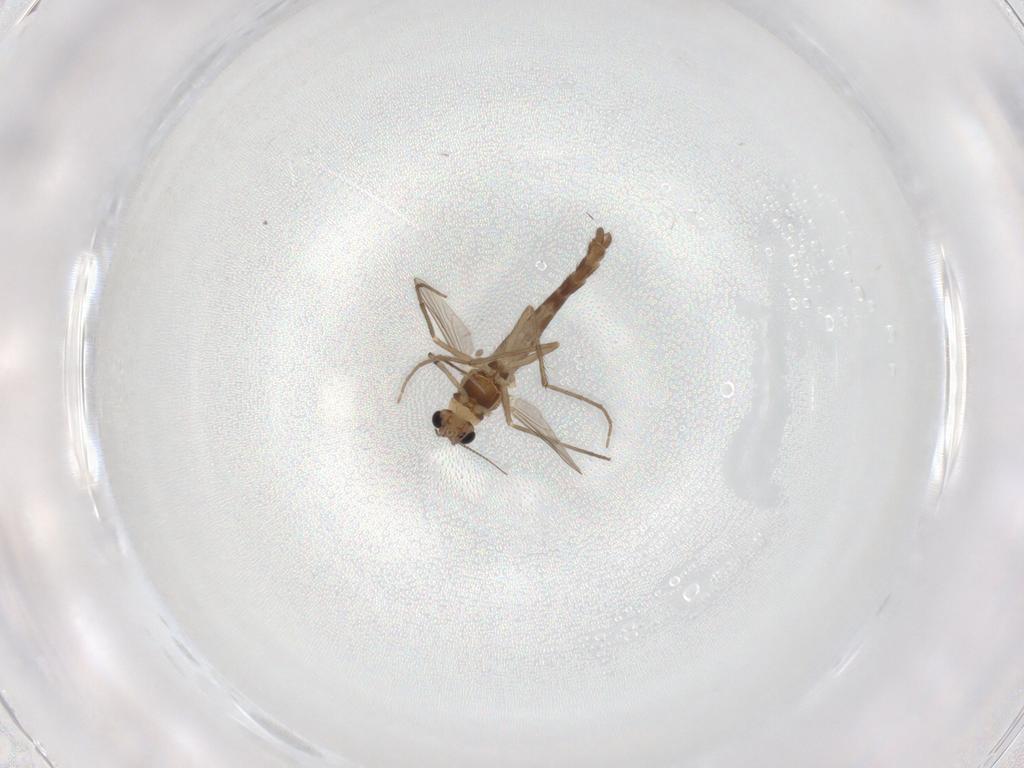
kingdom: Animalia
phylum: Arthropoda
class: Insecta
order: Diptera
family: Chironomidae
